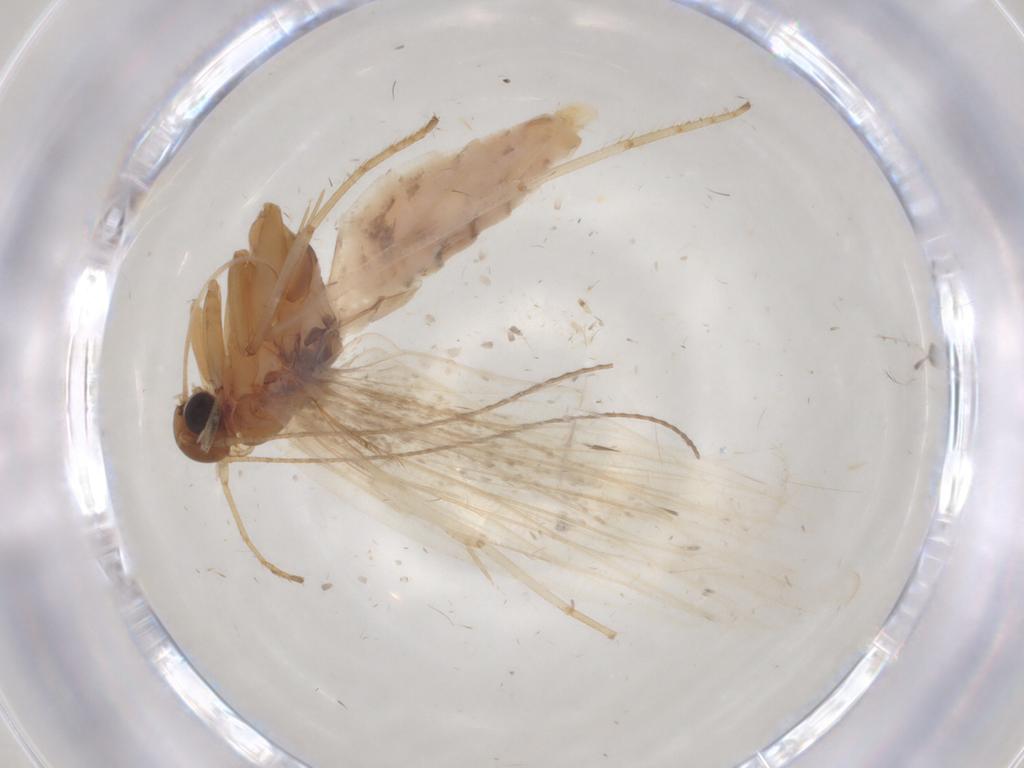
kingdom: Animalia
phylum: Arthropoda
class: Insecta
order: Lepidoptera
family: Gelechiidae
